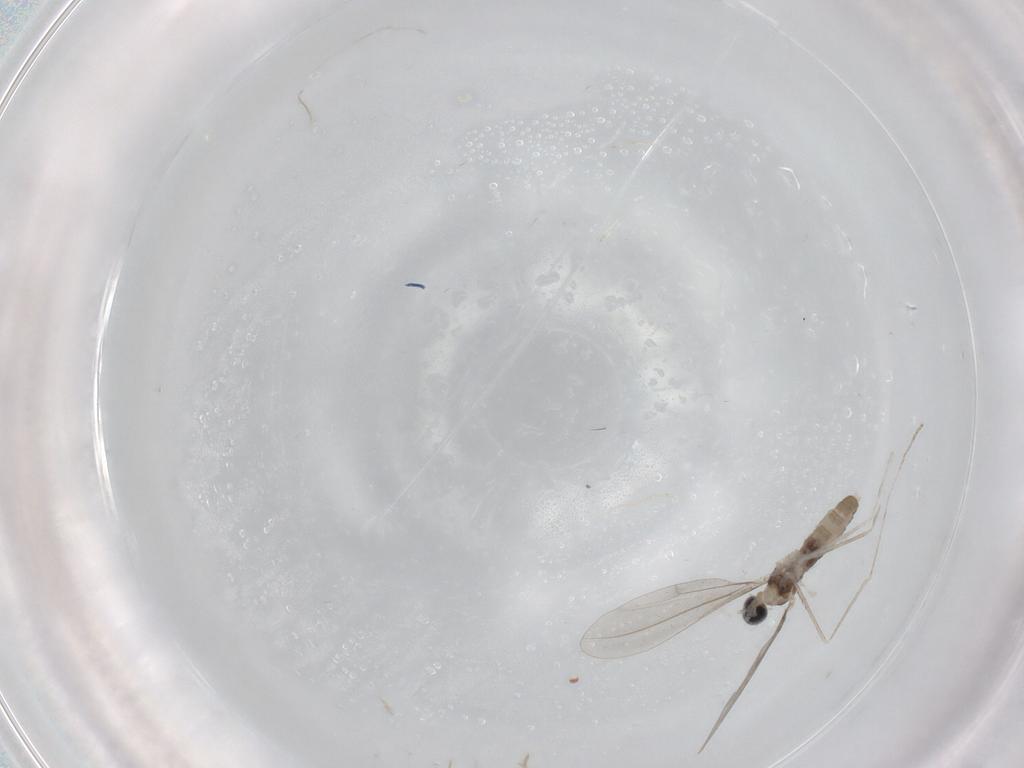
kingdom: Animalia
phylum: Arthropoda
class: Insecta
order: Diptera
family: Cecidomyiidae
